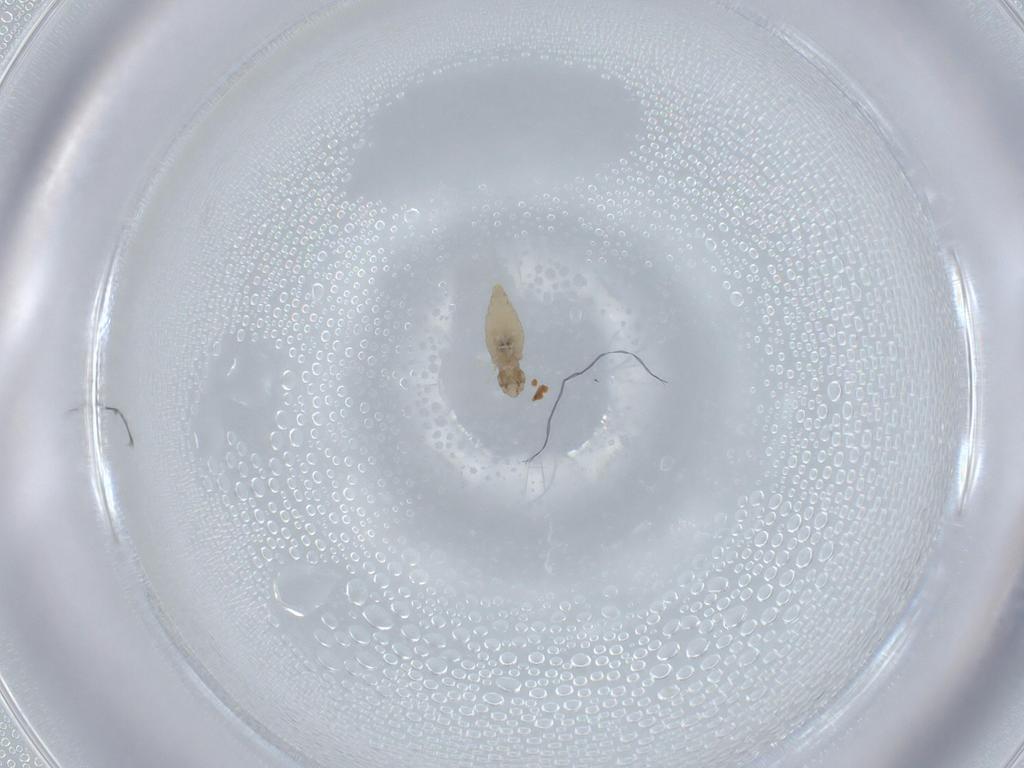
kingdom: Animalia
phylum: Arthropoda
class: Insecta
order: Diptera
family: Cecidomyiidae
